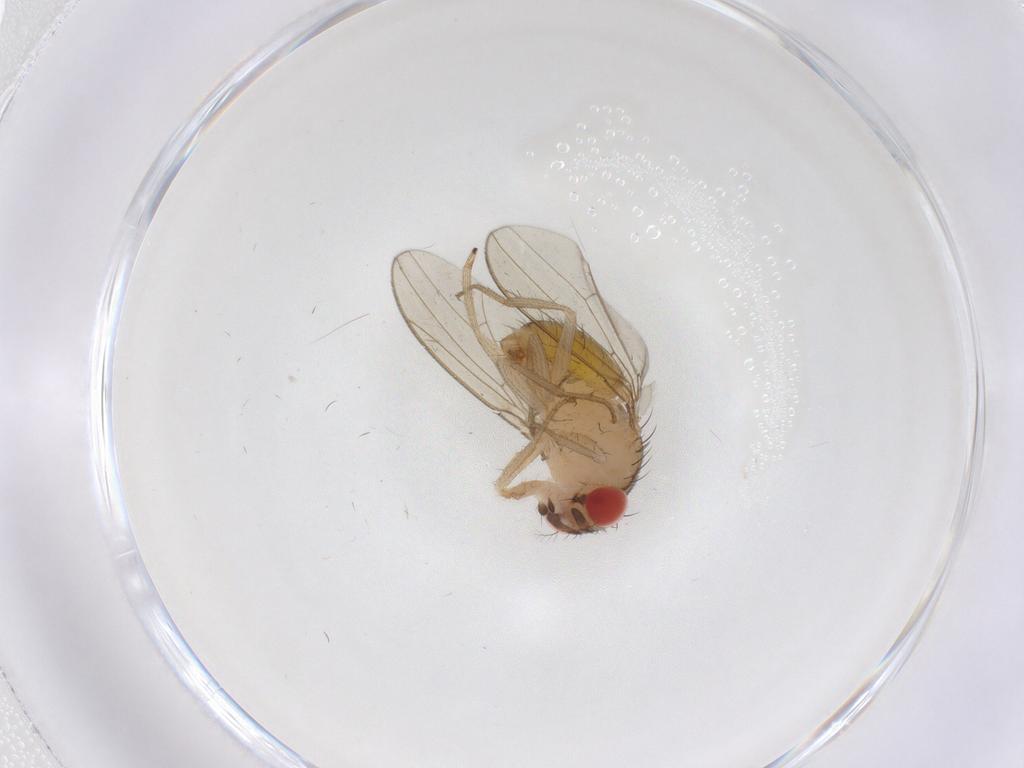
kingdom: Animalia
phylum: Arthropoda
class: Insecta
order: Diptera
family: Drosophilidae
